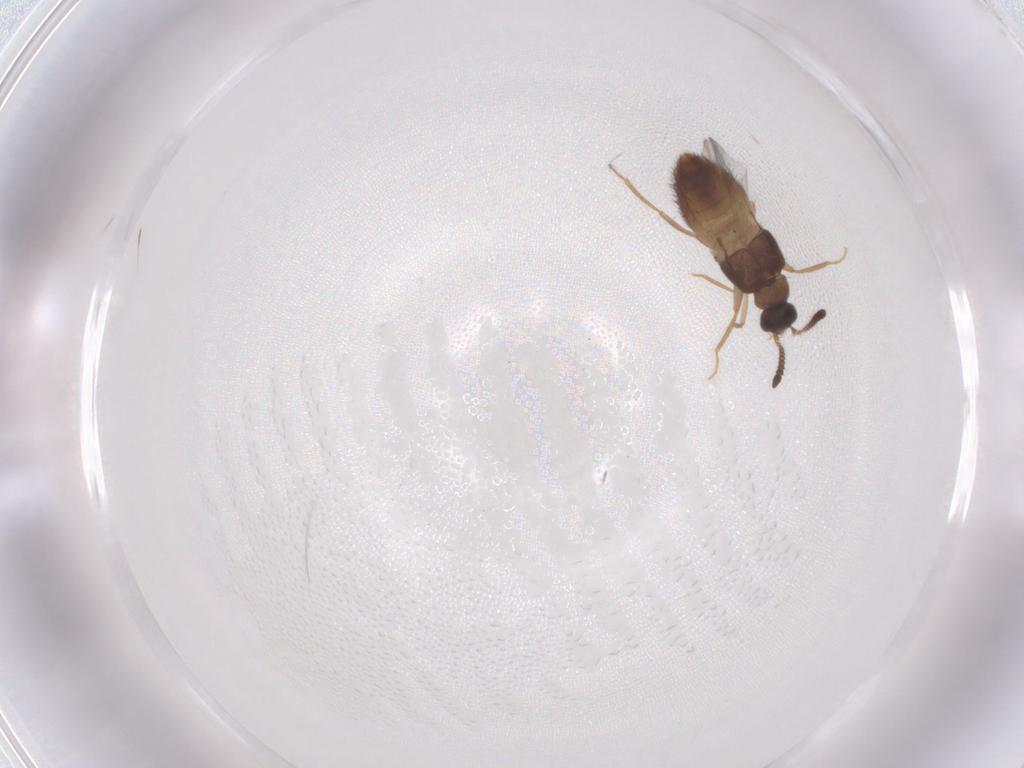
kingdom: Animalia
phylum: Arthropoda
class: Insecta
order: Coleoptera
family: Staphylinidae
